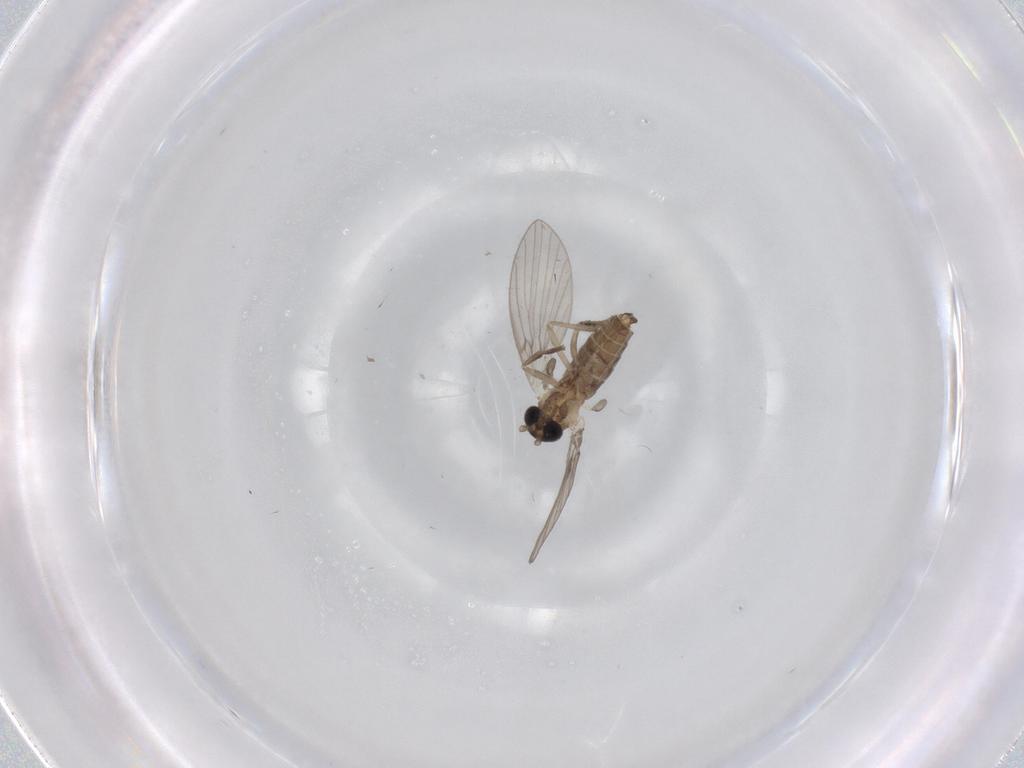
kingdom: Animalia
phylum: Arthropoda
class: Insecta
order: Diptera
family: Psychodidae
